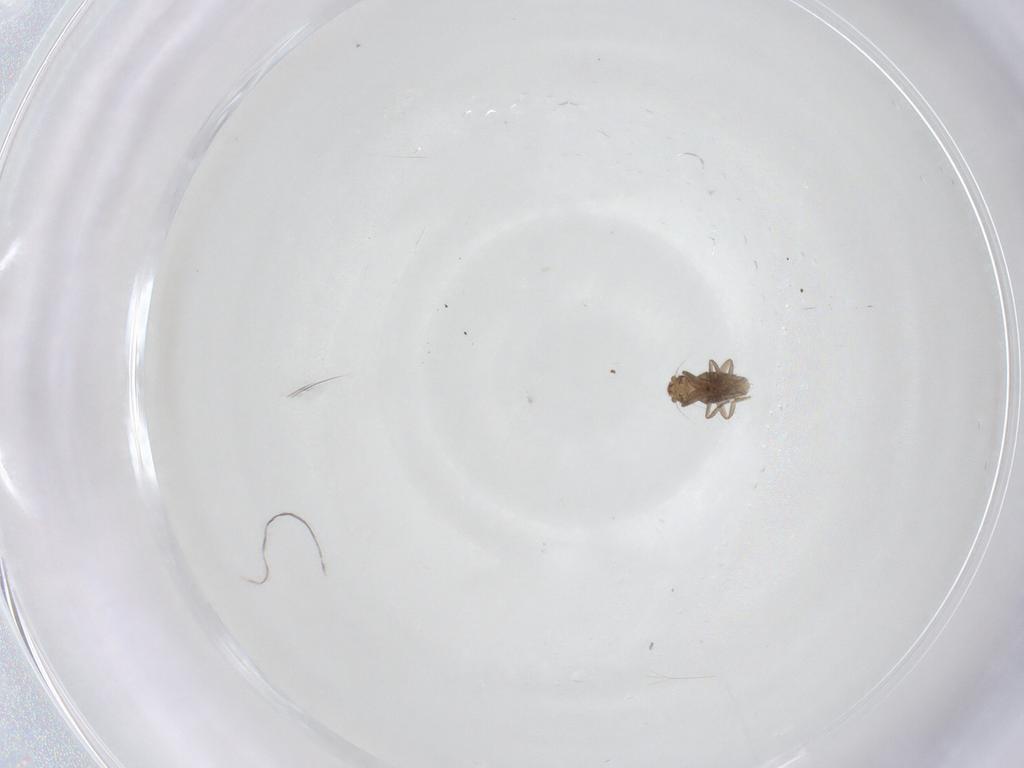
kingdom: Animalia
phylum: Arthropoda
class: Insecta
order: Diptera
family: Phoridae
